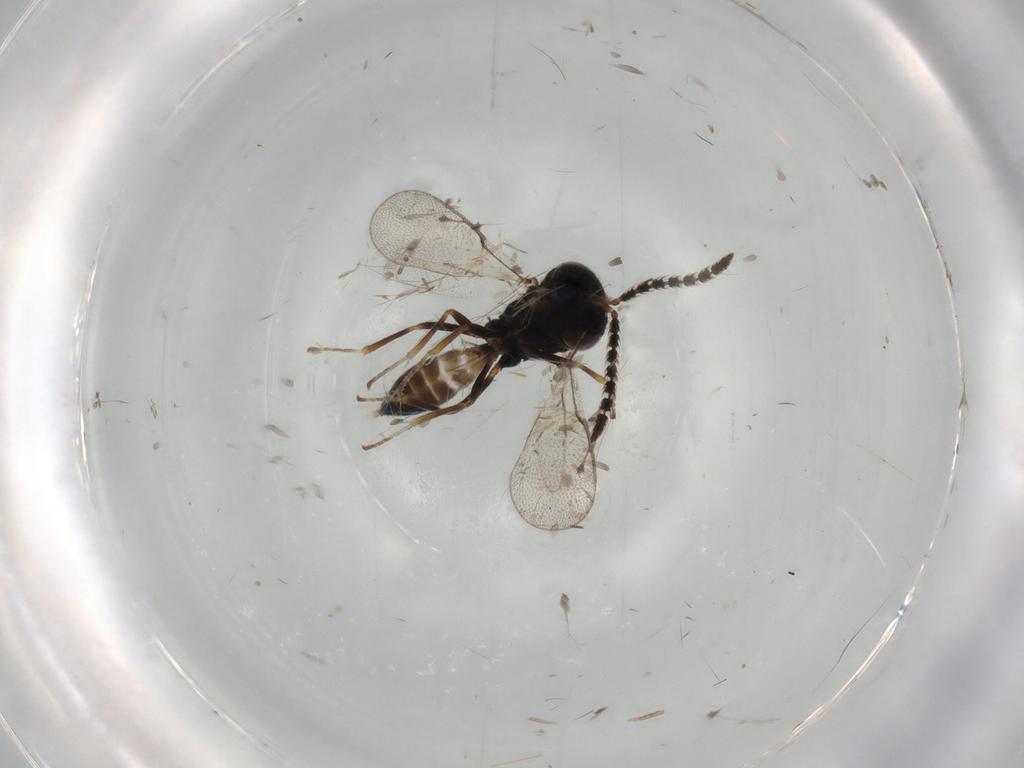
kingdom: Animalia
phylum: Arthropoda
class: Insecta
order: Hymenoptera
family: Agaonidae
